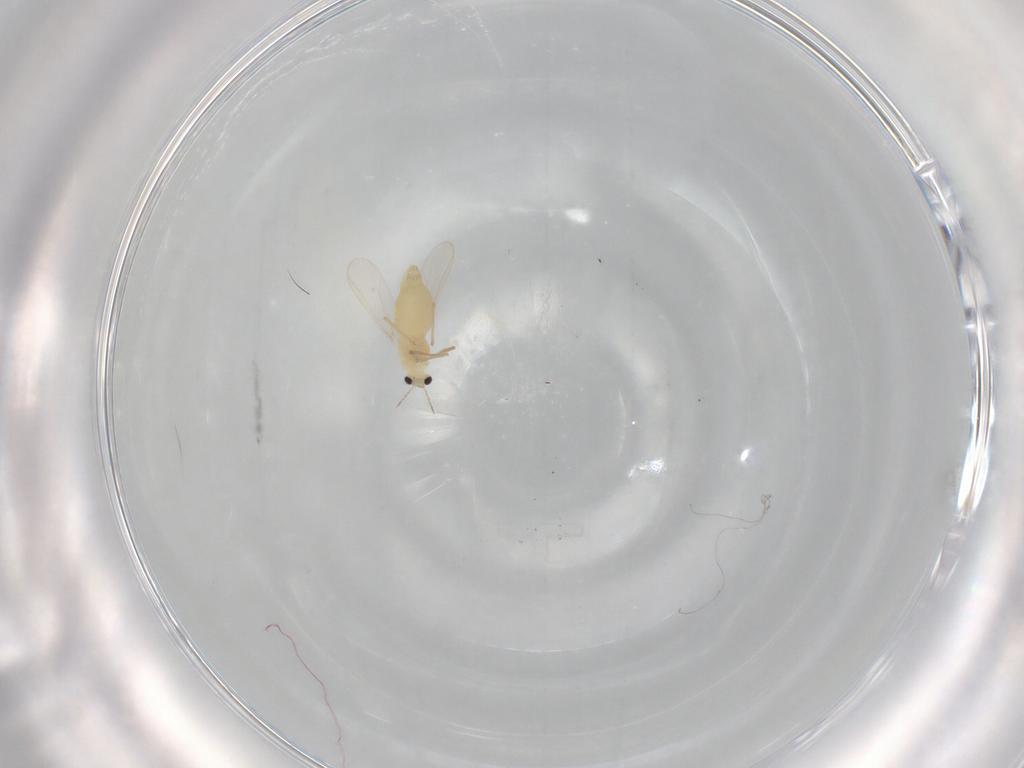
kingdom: Animalia
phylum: Arthropoda
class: Insecta
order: Diptera
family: Chironomidae
